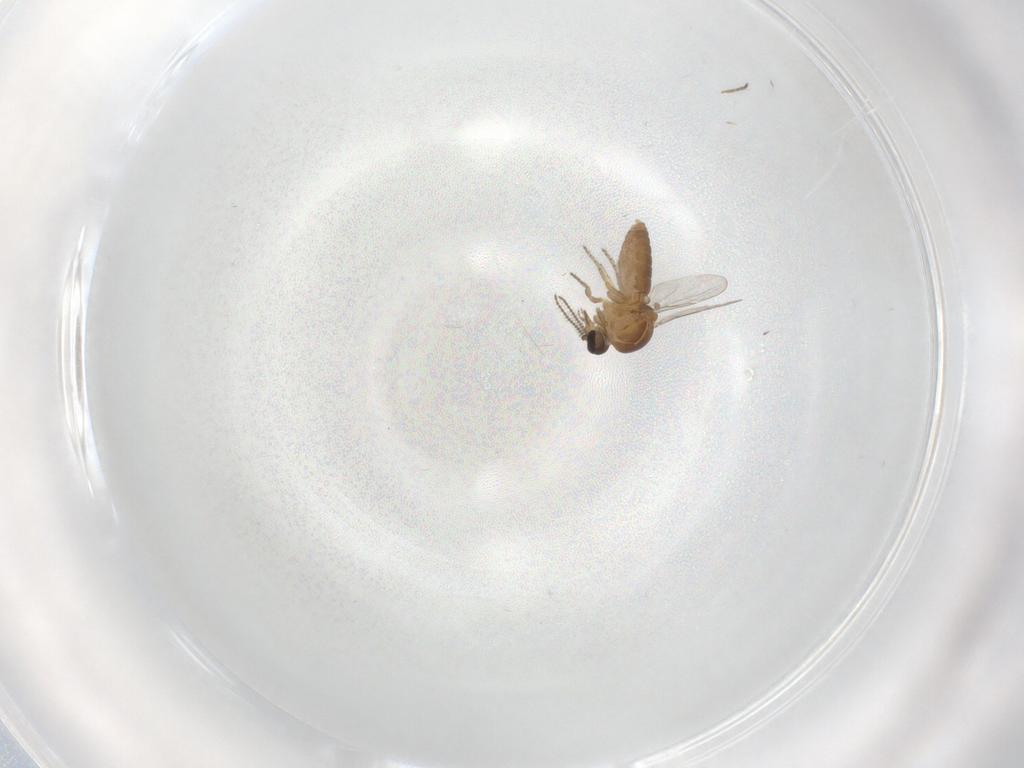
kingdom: Animalia
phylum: Arthropoda
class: Insecta
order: Diptera
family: Ceratopogonidae
